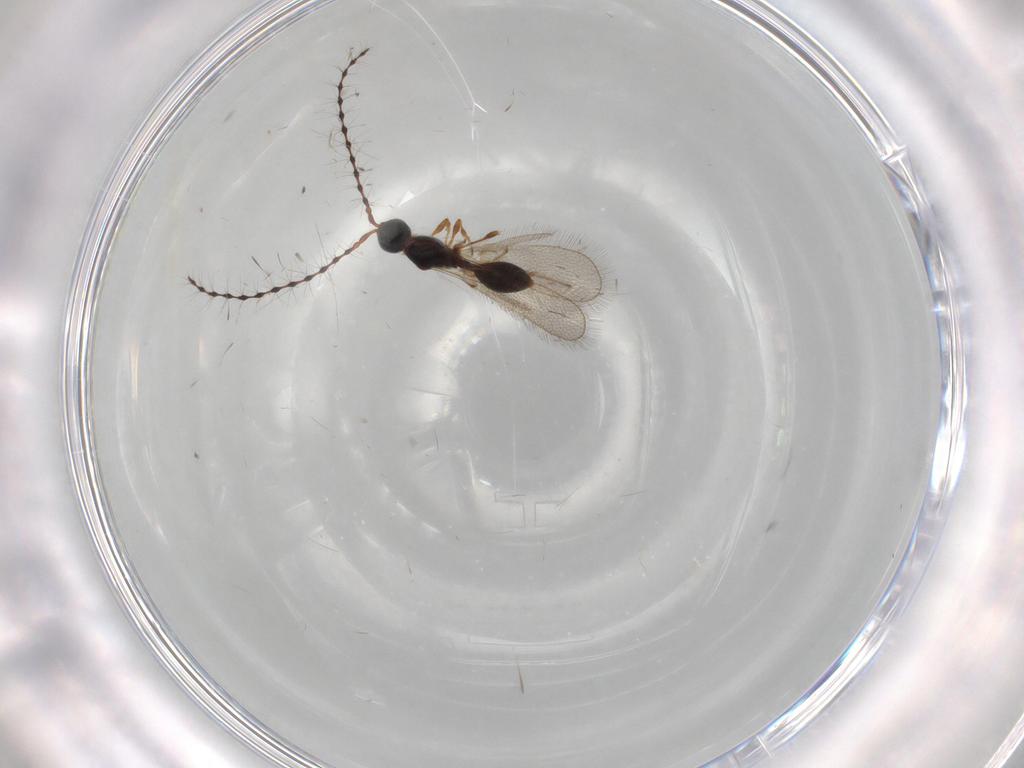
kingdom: Animalia
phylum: Arthropoda
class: Insecta
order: Hymenoptera
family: Diapriidae
